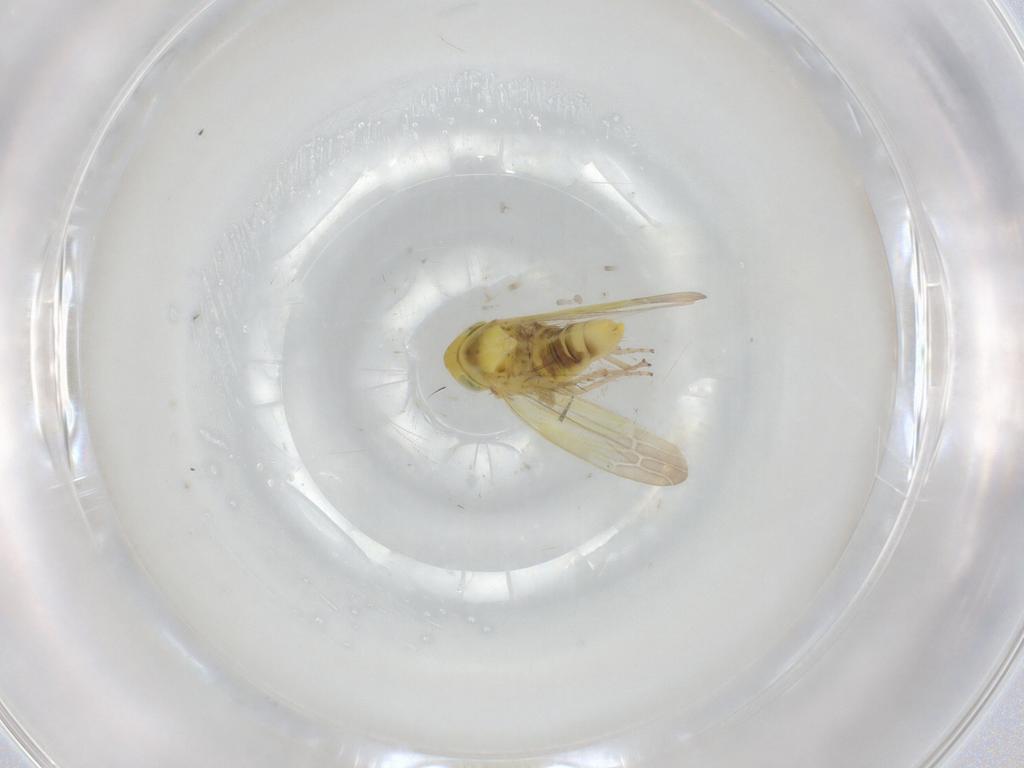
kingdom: Animalia
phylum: Arthropoda
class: Insecta
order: Hemiptera
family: Cicadellidae
